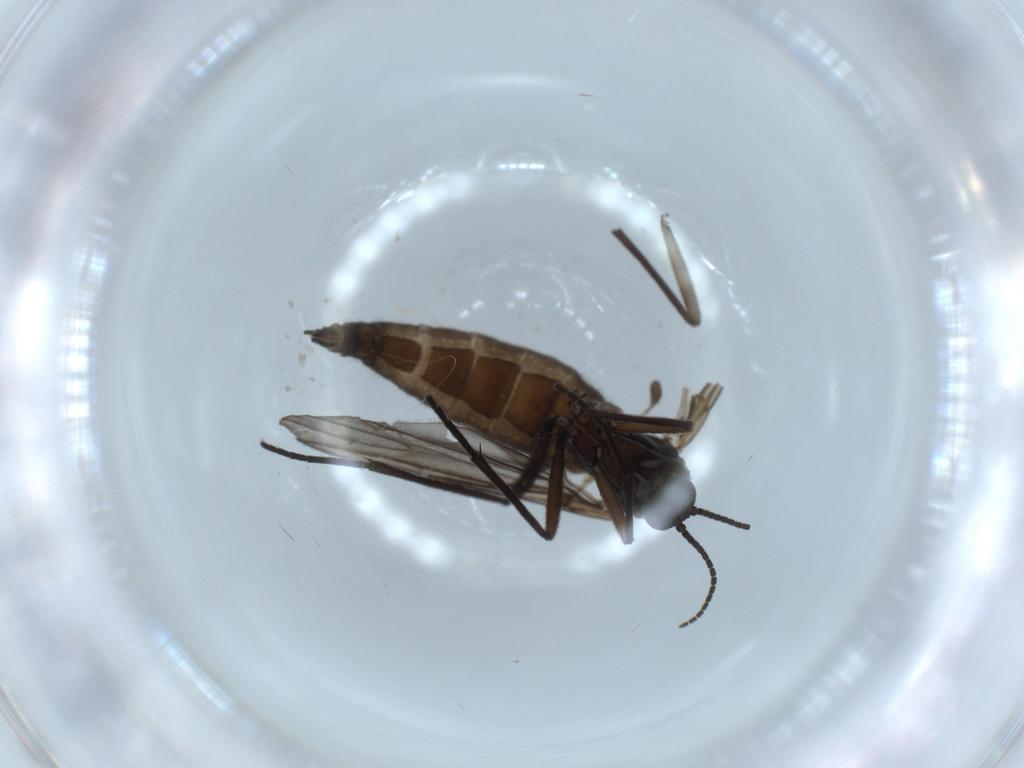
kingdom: Animalia
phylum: Arthropoda
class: Insecta
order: Diptera
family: Sciaridae
